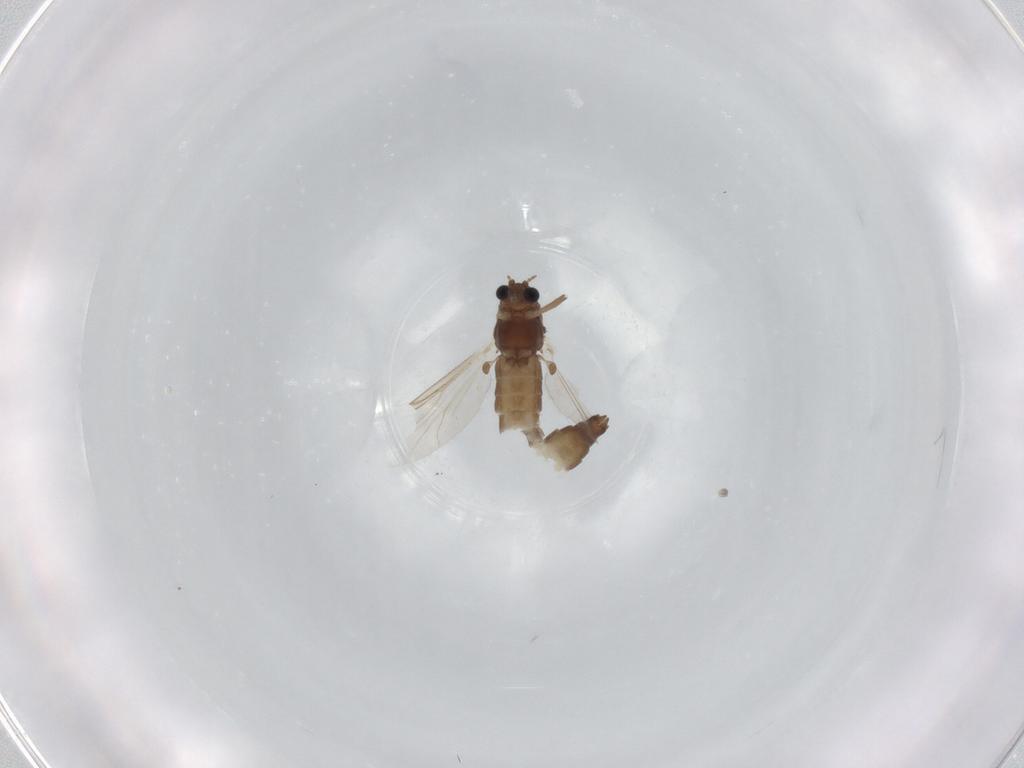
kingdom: Animalia
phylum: Arthropoda
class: Insecta
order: Diptera
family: Chironomidae
